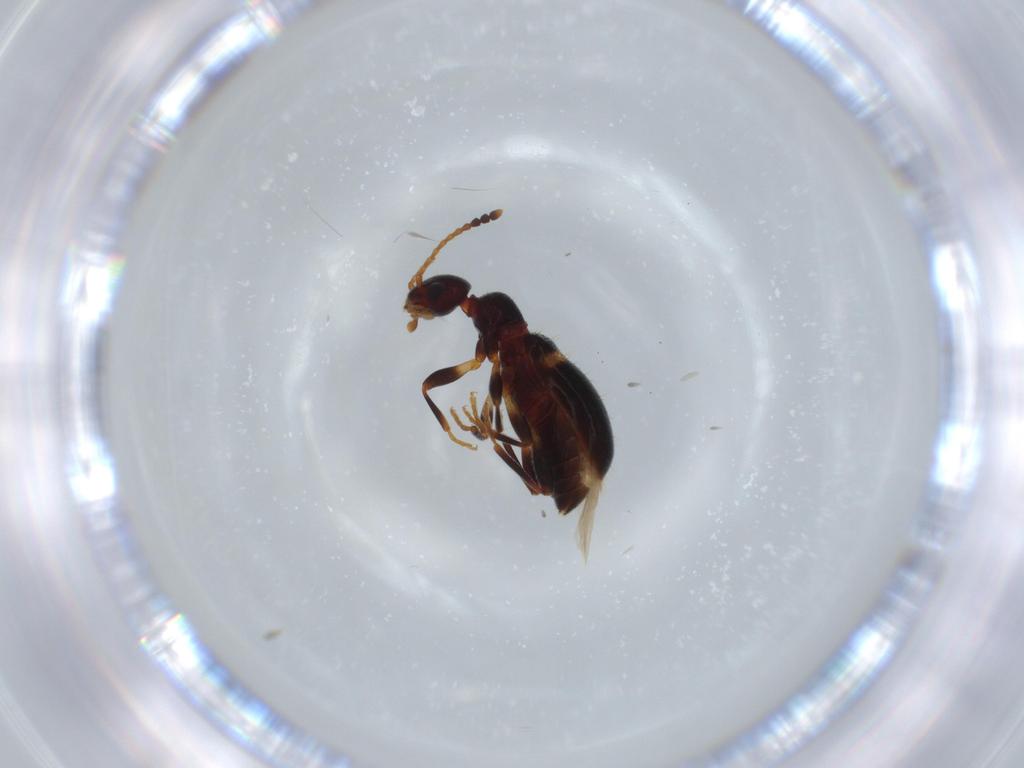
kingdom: Animalia
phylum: Arthropoda
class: Insecta
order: Coleoptera
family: Anthicidae
